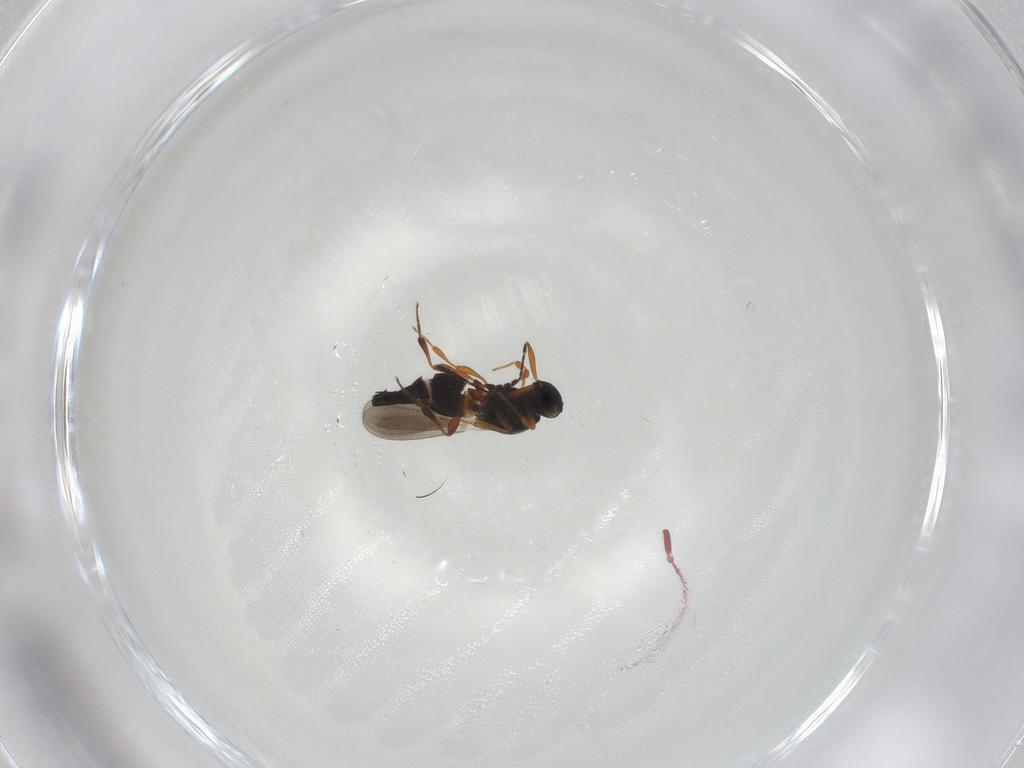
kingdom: Animalia
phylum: Arthropoda
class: Insecta
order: Hymenoptera
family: Platygastridae
